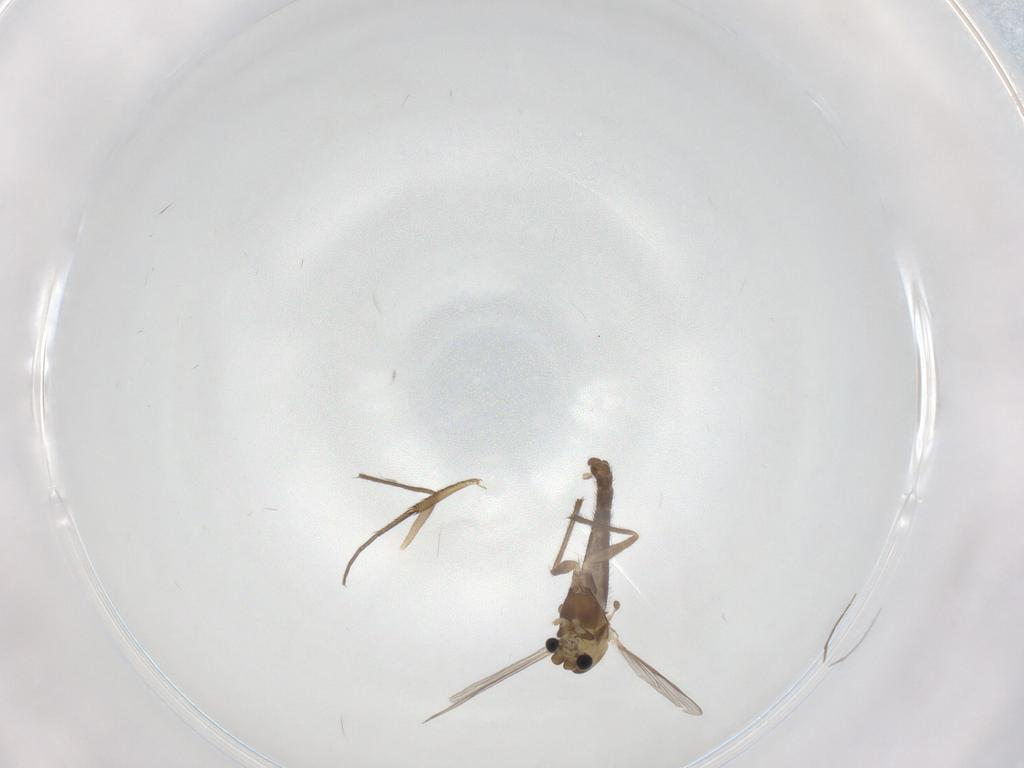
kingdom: Animalia
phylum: Arthropoda
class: Insecta
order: Diptera
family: Chironomidae
